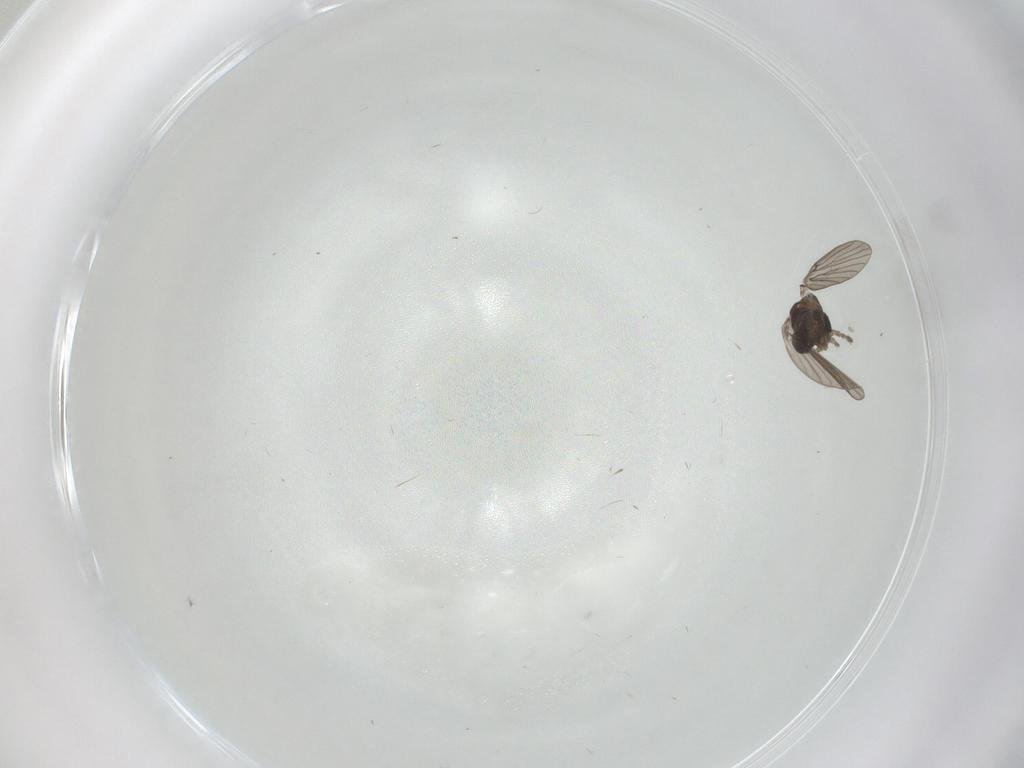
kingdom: Animalia
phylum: Arthropoda
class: Insecta
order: Diptera
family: Psychodidae
